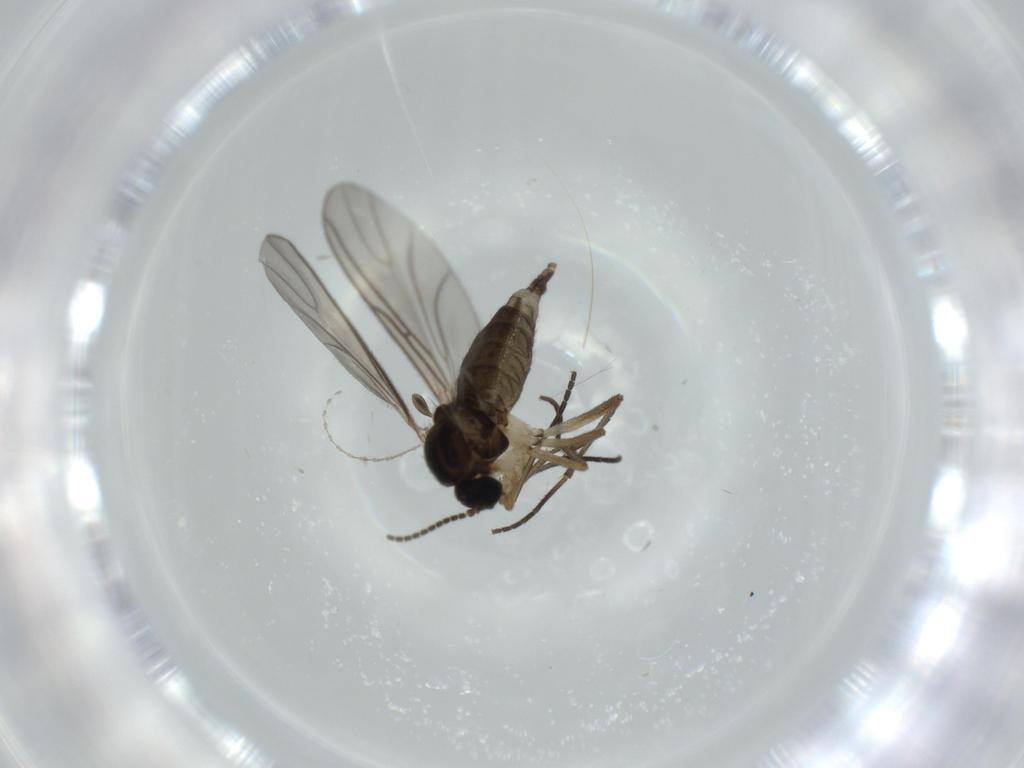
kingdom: Animalia
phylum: Arthropoda
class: Insecta
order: Diptera
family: Sciaridae
